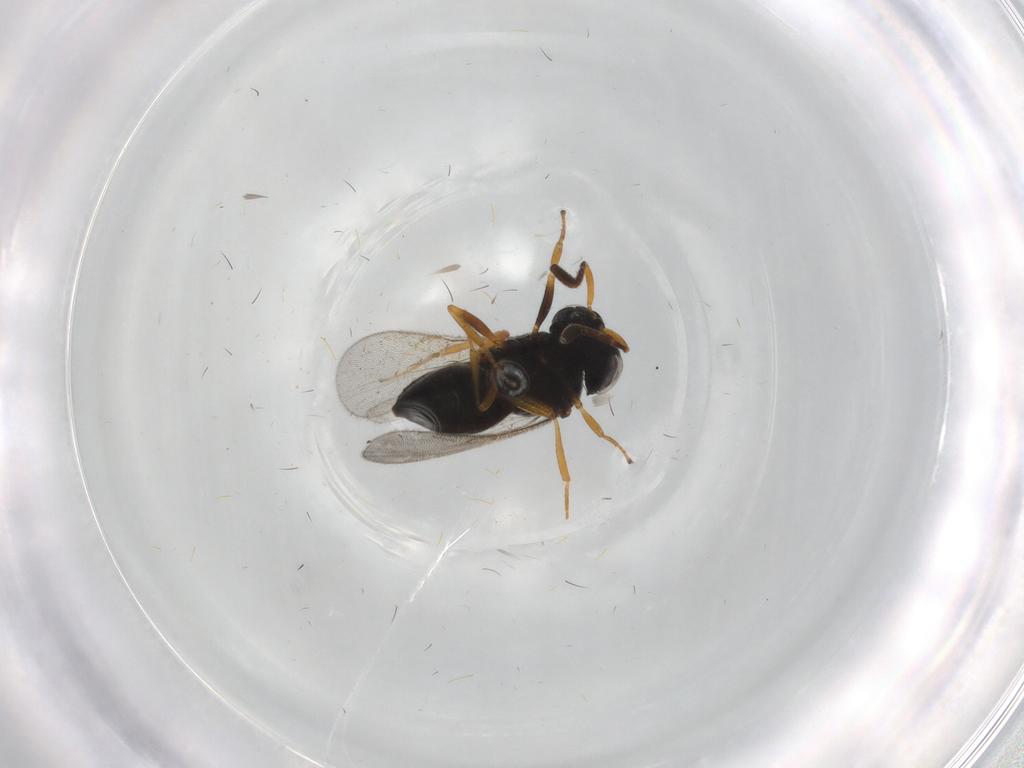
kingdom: Animalia
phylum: Arthropoda
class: Insecta
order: Hymenoptera
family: Scelionidae
